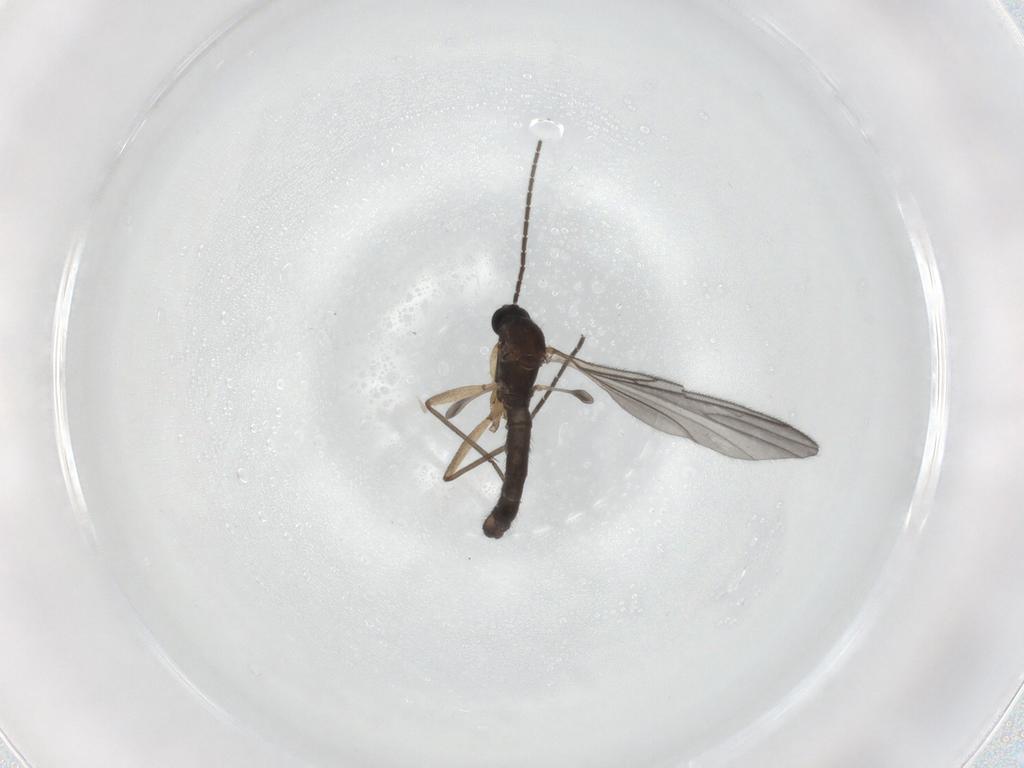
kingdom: Animalia
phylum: Arthropoda
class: Insecta
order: Diptera
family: Sciaridae
